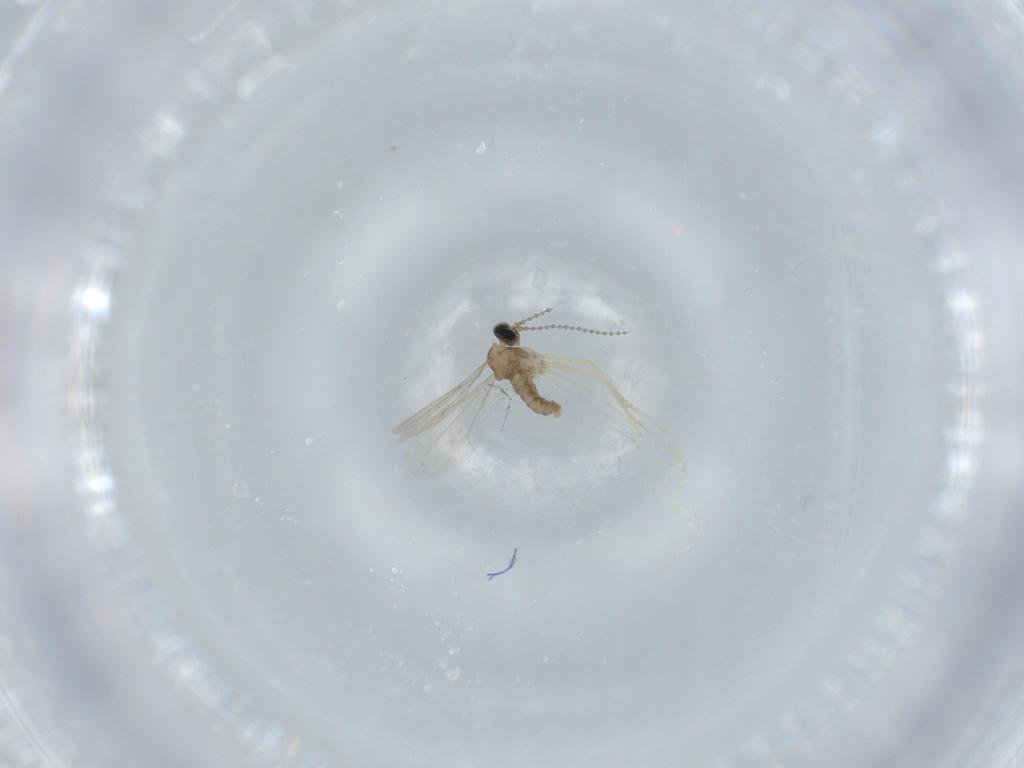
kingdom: Animalia
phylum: Arthropoda
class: Insecta
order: Diptera
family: Cecidomyiidae
